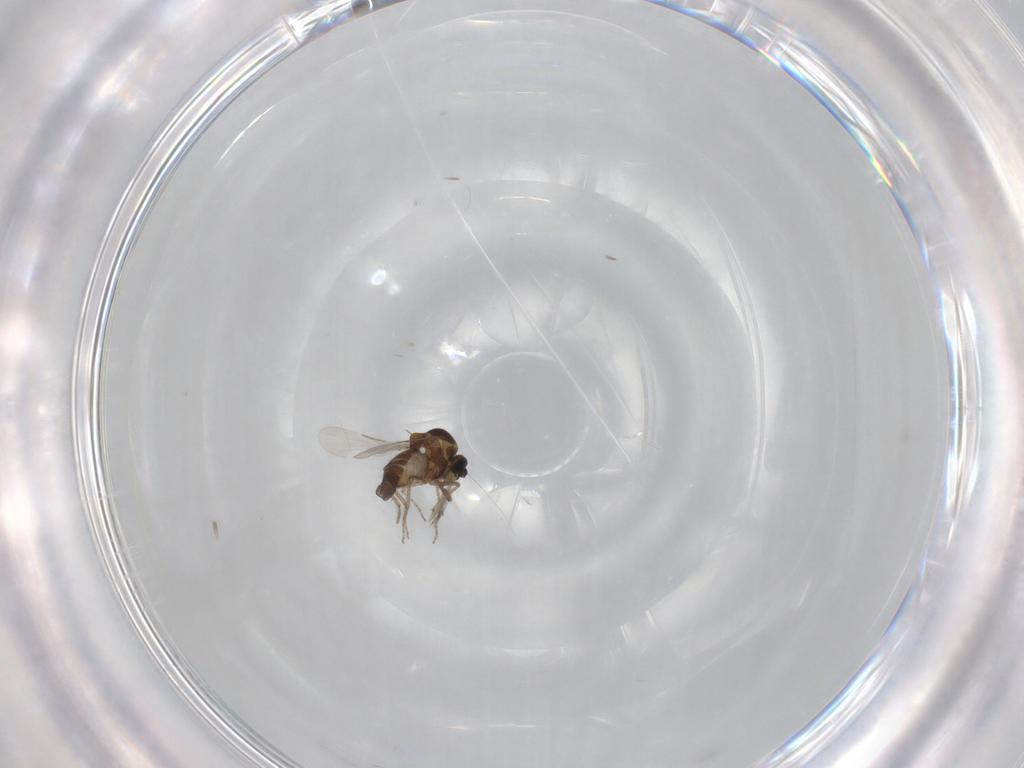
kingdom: Animalia
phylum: Arthropoda
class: Insecta
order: Diptera
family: Ceratopogonidae
